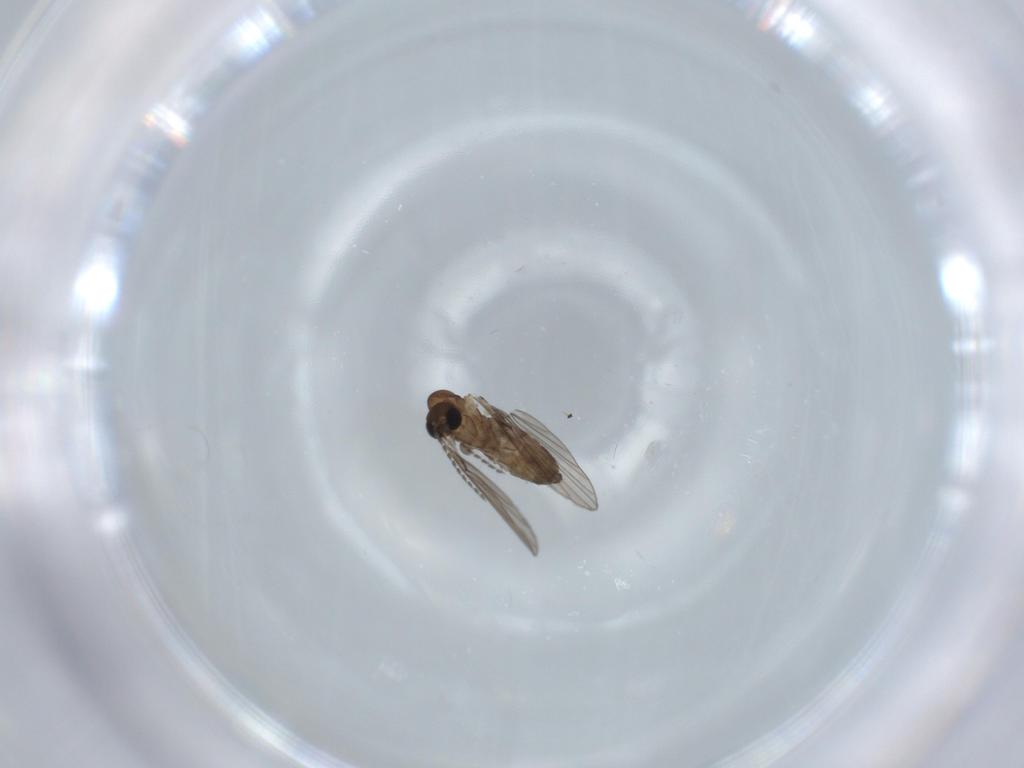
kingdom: Animalia
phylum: Arthropoda
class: Insecta
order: Diptera
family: Psychodidae
